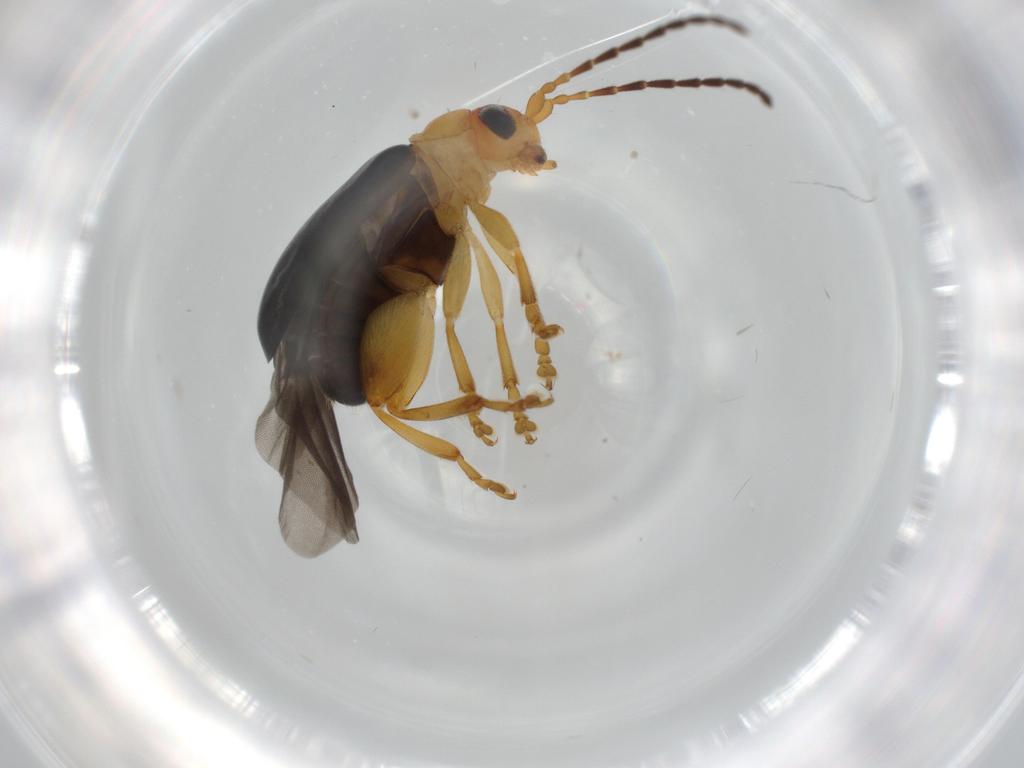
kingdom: Animalia
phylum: Arthropoda
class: Insecta
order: Coleoptera
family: Chrysomelidae
